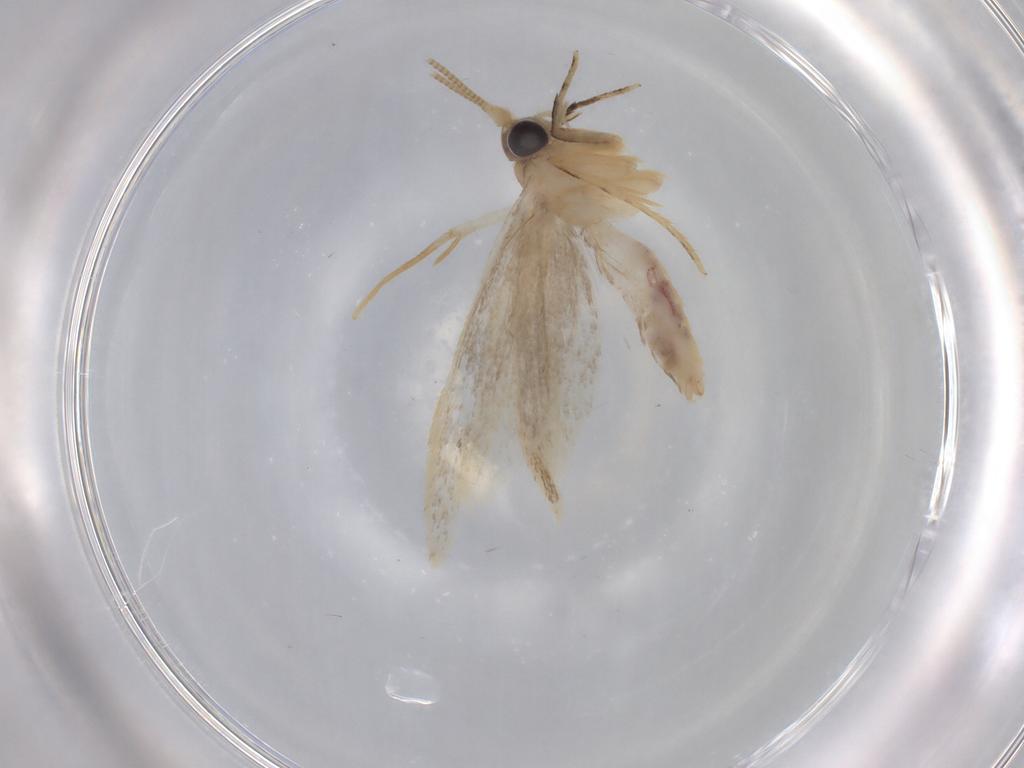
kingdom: Animalia
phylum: Arthropoda
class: Insecta
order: Lepidoptera
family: Nepticulidae
